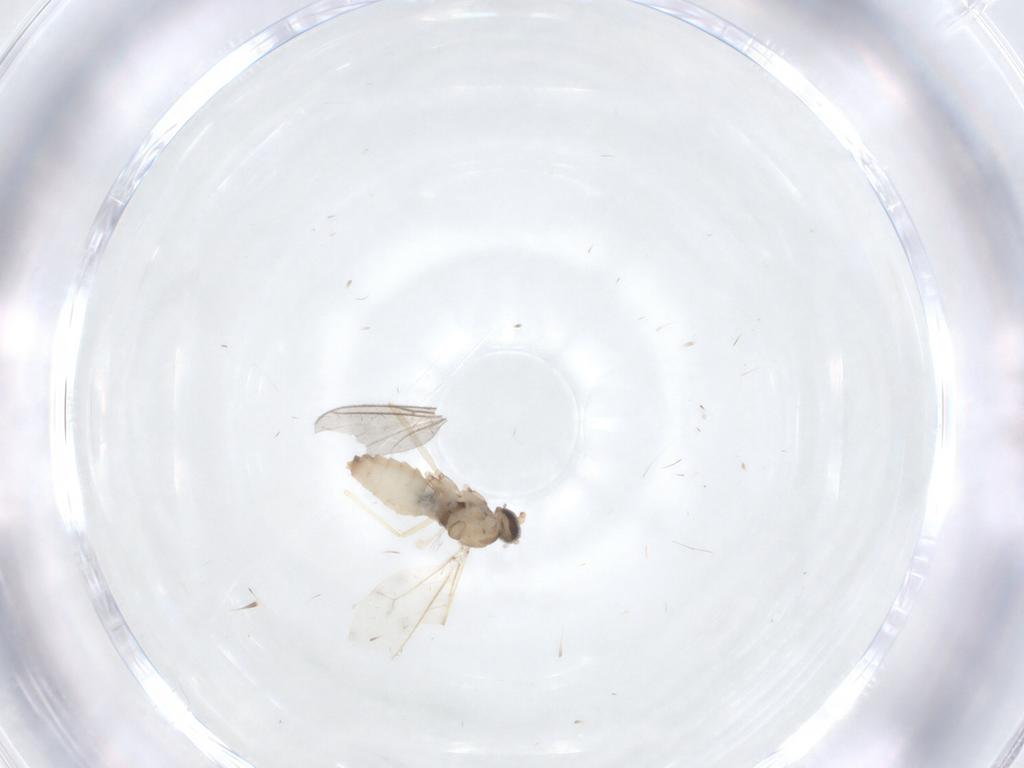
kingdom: Animalia
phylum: Arthropoda
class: Insecta
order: Diptera
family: Cecidomyiidae
